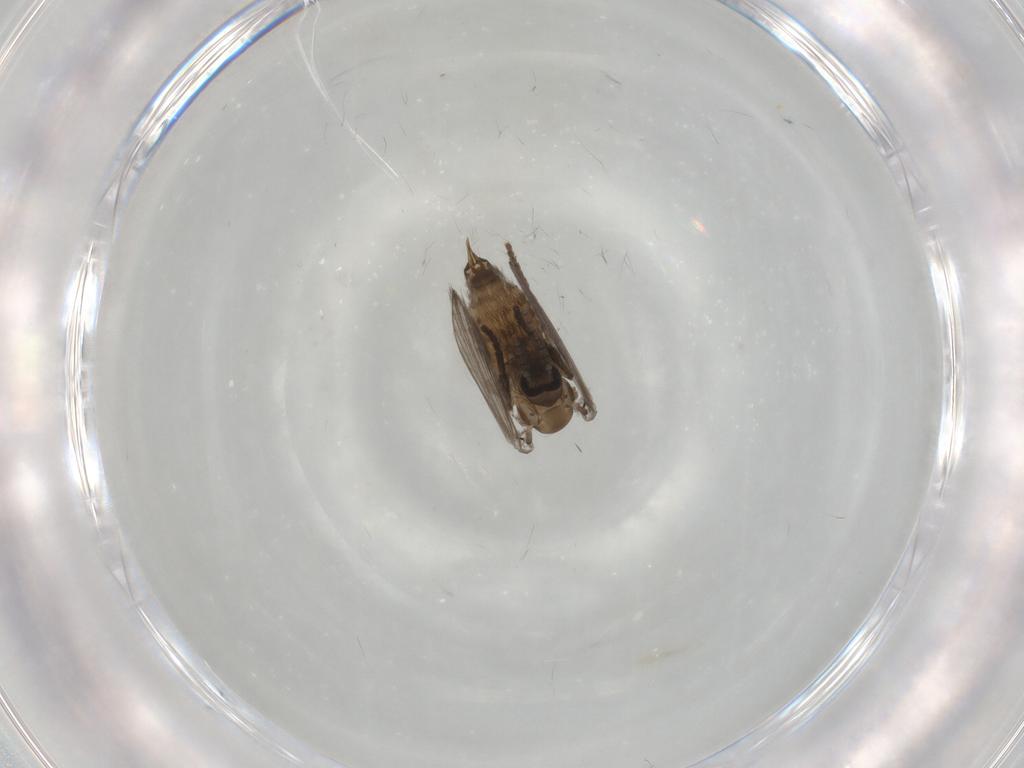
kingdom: Animalia
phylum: Arthropoda
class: Insecta
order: Diptera
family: Psychodidae
